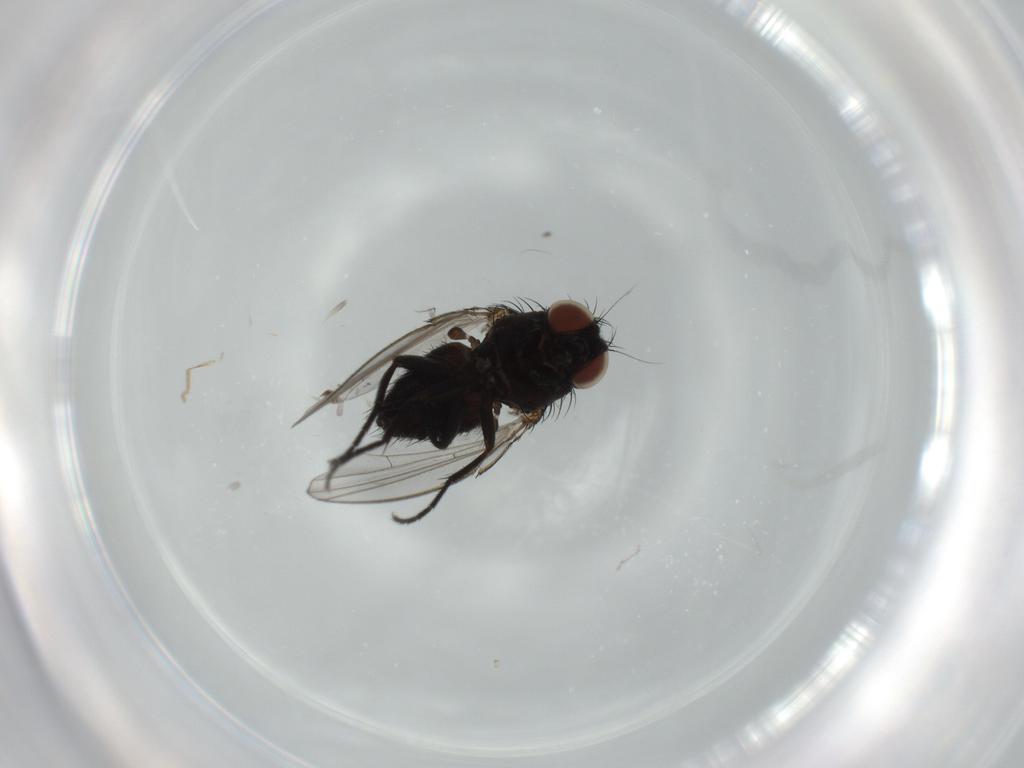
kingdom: Animalia
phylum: Arthropoda
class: Insecta
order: Diptera
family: Milichiidae
